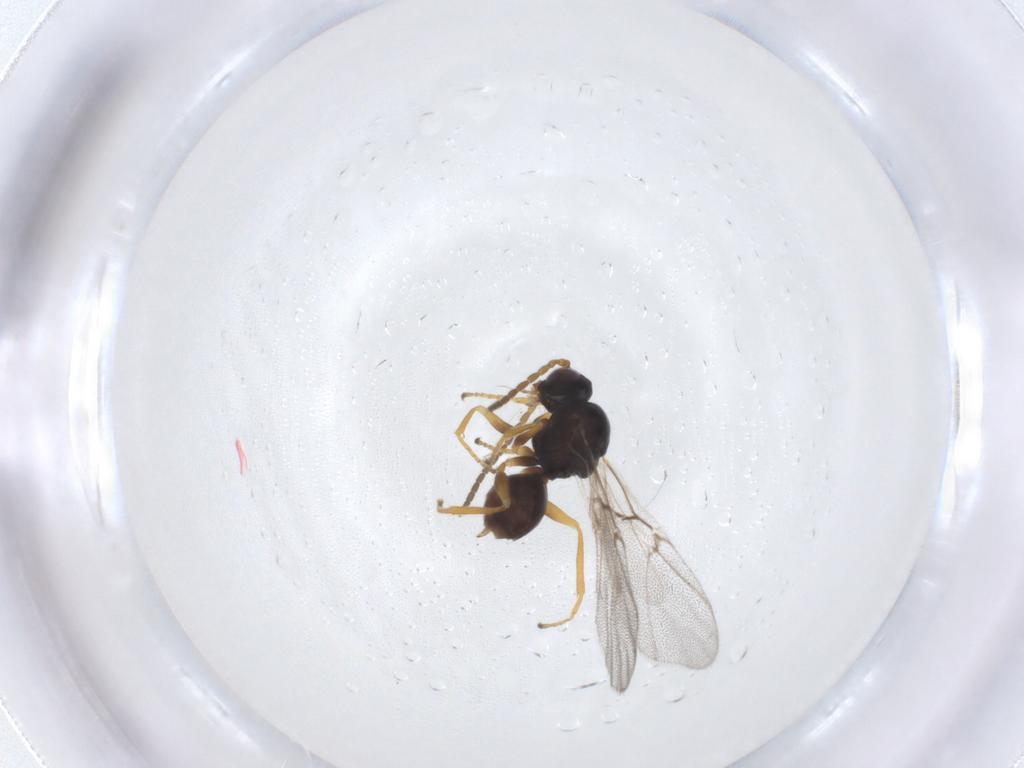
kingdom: Animalia
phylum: Arthropoda
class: Insecta
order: Hymenoptera
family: Cynipidae
